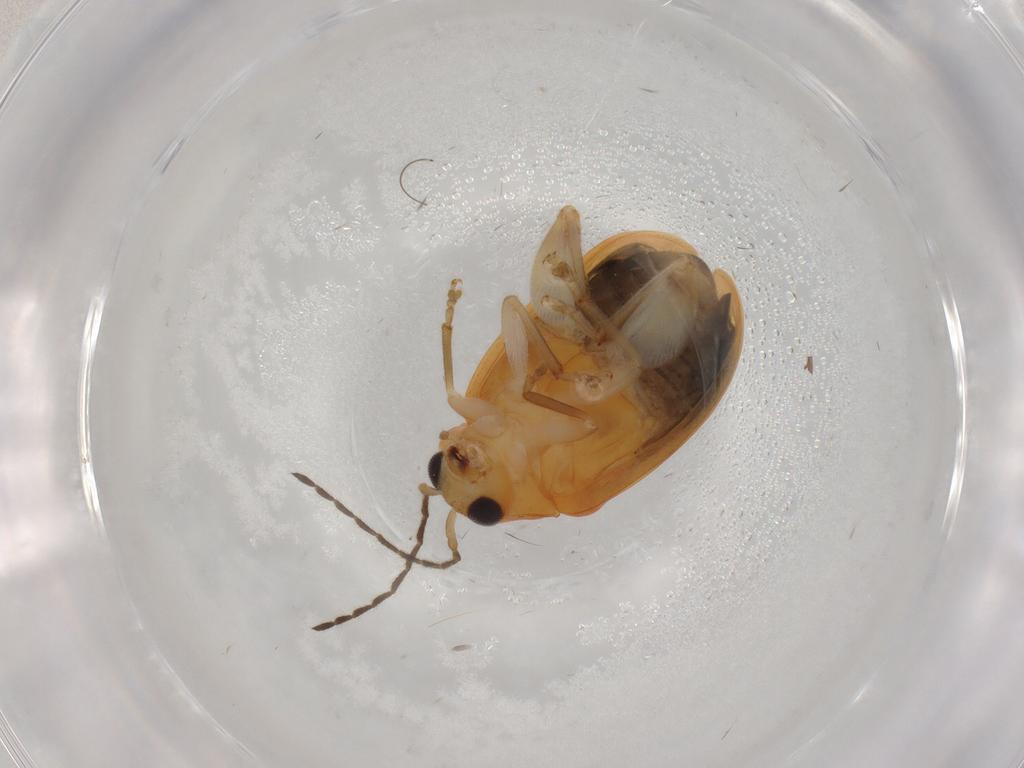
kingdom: Animalia
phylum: Arthropoda
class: Insecta
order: Coleoptera
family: Chrysomelidae
